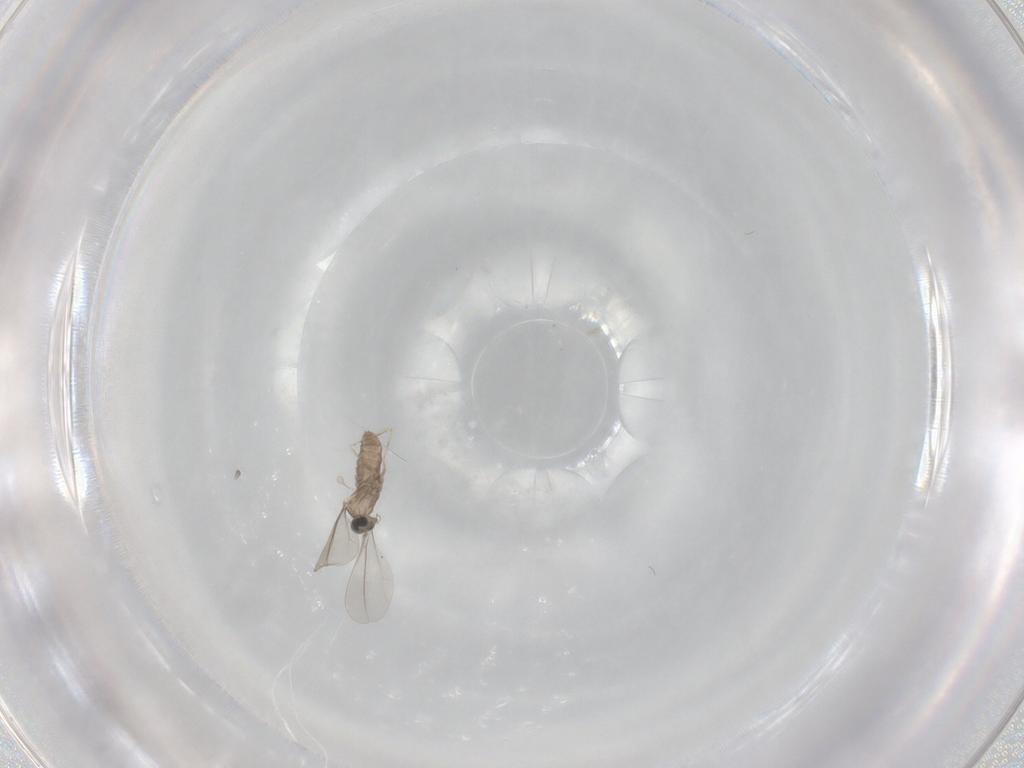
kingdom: Animalia
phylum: Arthropoda
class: Insecta
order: Diptera
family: Cecidomyiidae
